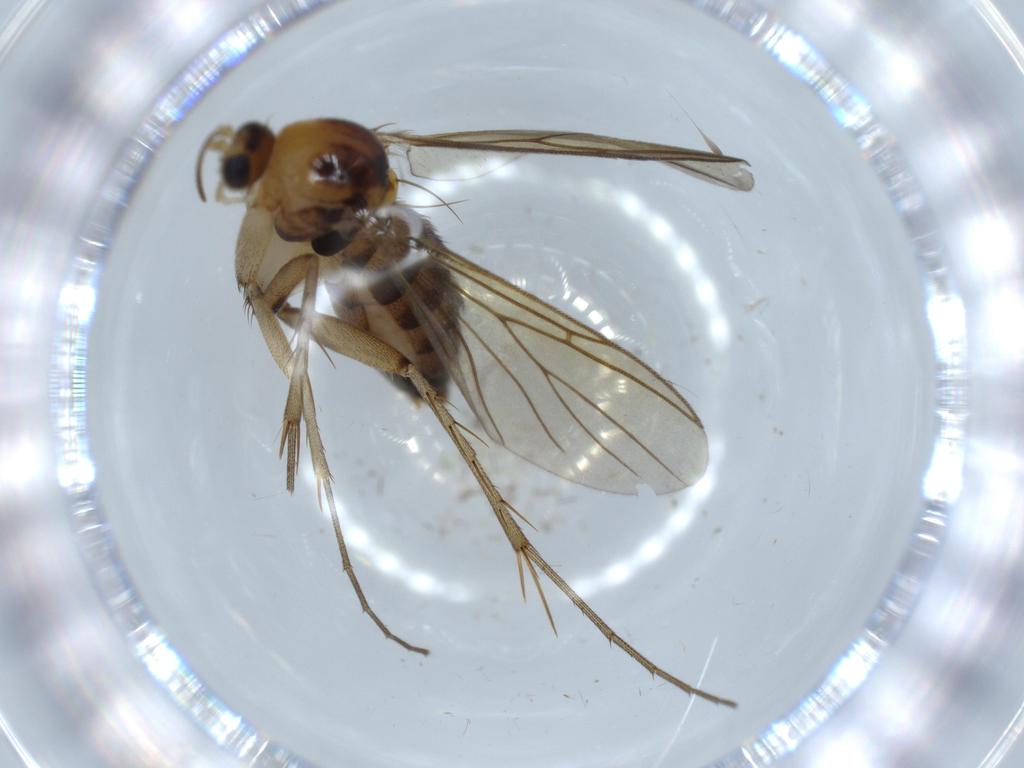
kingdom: Animalia
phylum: Arthropoda
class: Insecta
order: Diptera
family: Mycetophilidae
